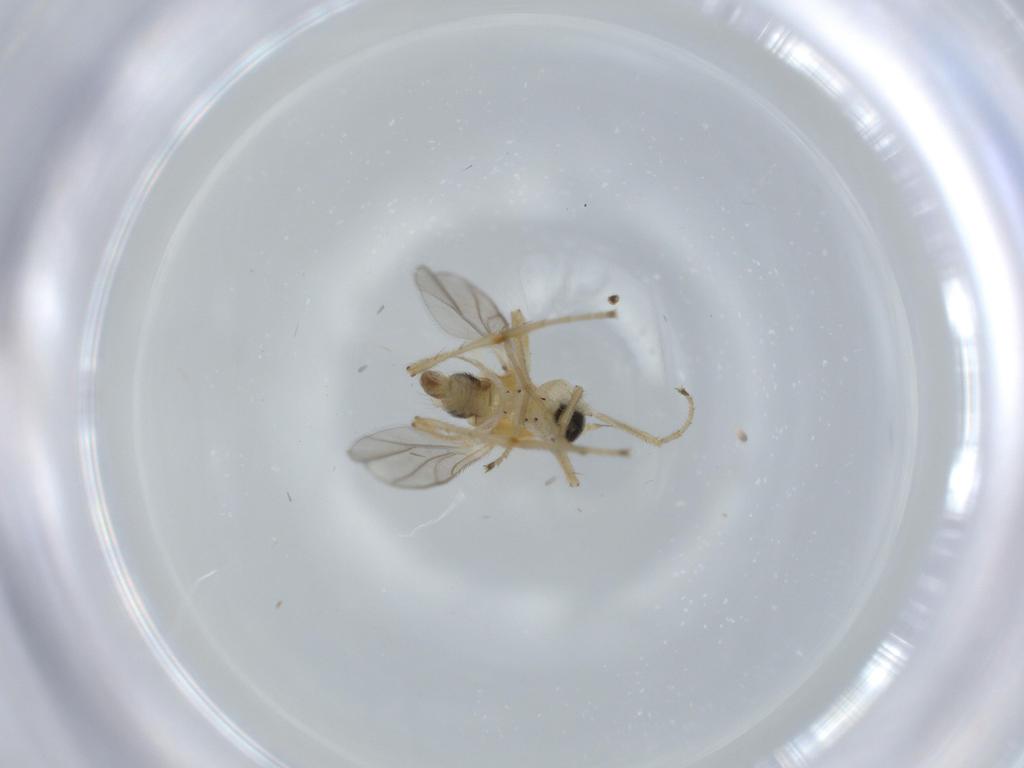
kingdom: Animalia
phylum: Arthropoda
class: Insecta
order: Diptera
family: Hybotidae
